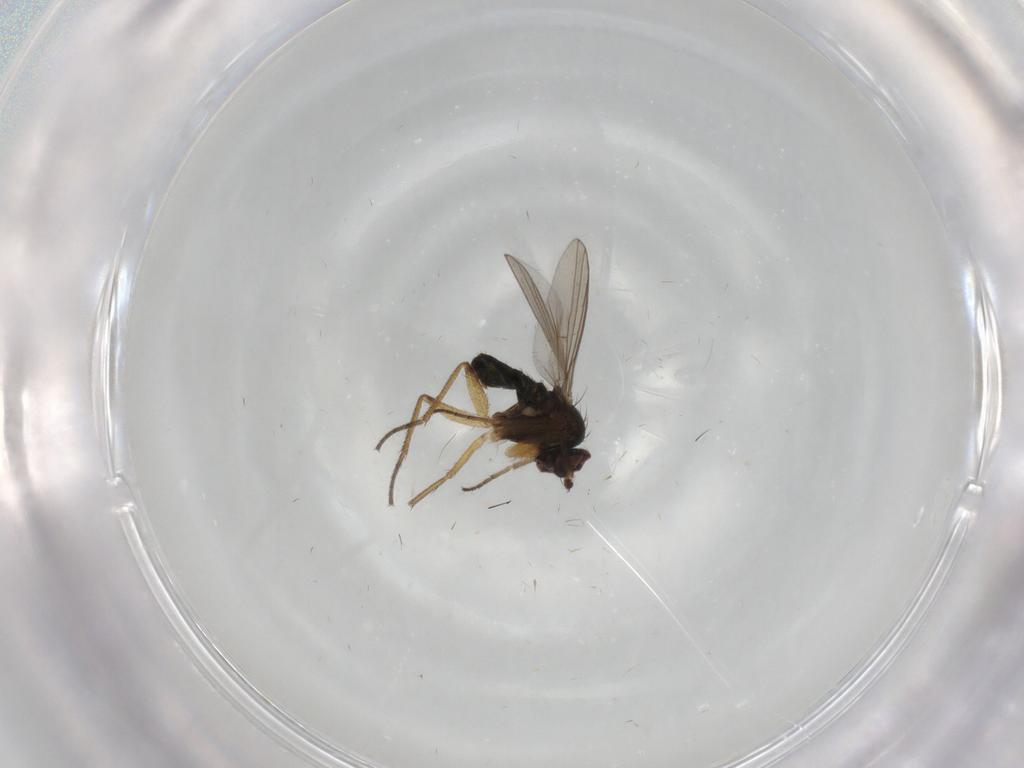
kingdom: Animalia
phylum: Arthropoda
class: Insecta
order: Diptera
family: Dolichopodidae
